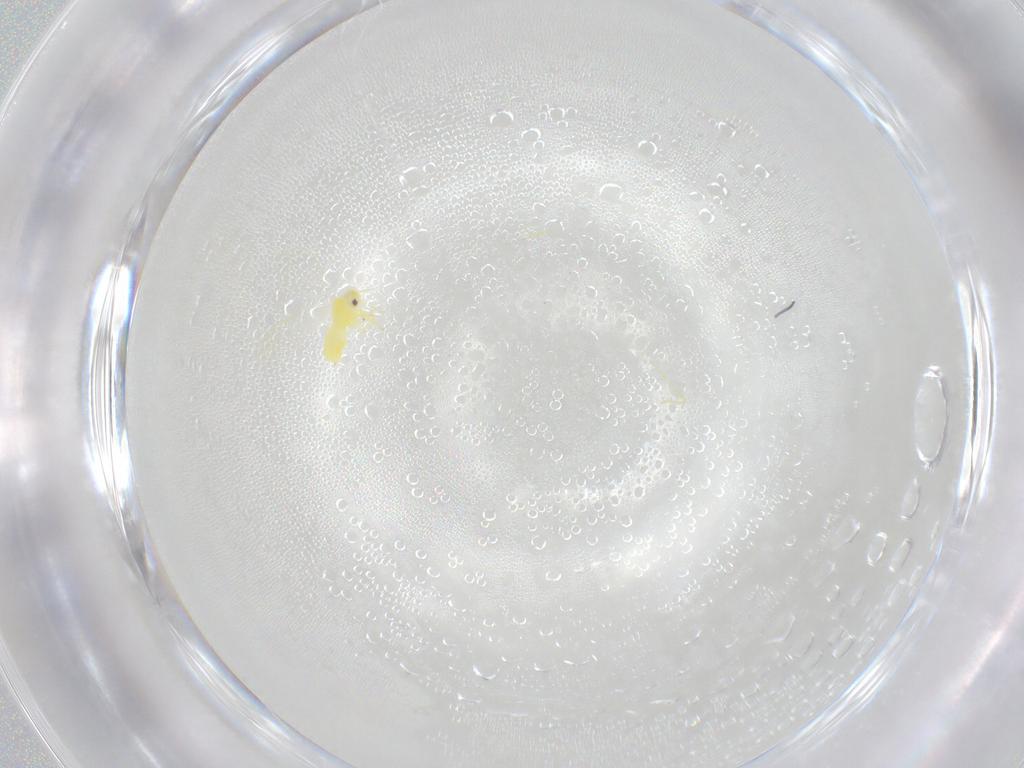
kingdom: Animalia
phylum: Arthropoda
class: Insecta
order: Hemiptera
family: Aleyrodidae
